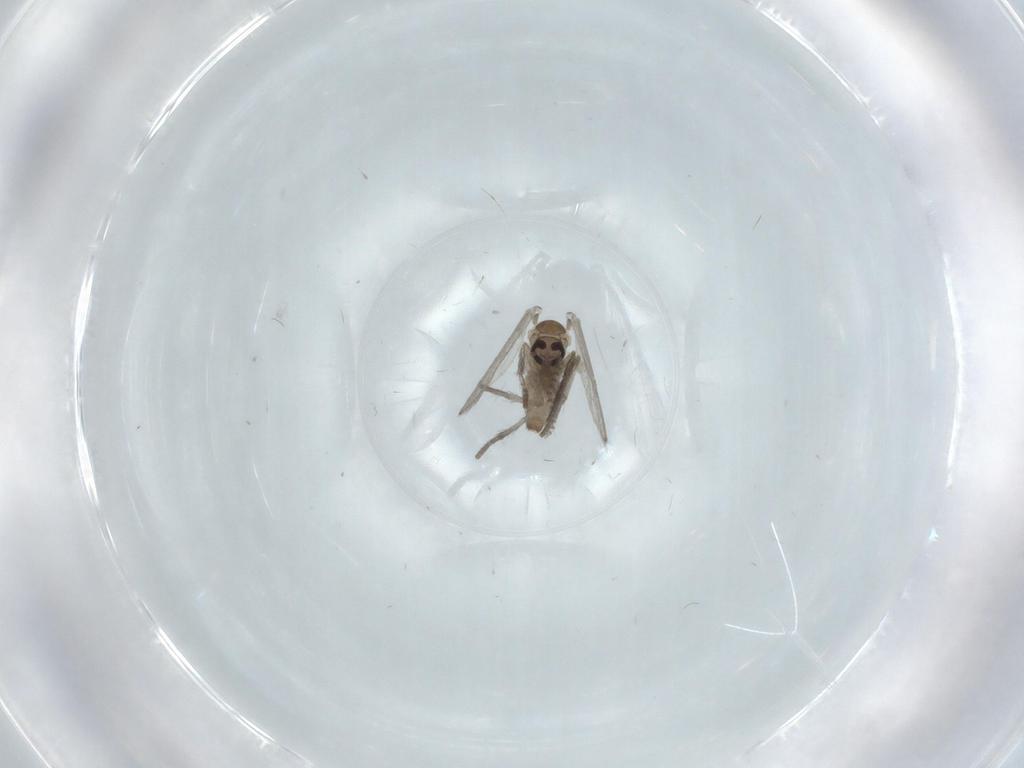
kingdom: Animalia
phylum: Arthropoda
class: Insecta
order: Diptera
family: Psychodidae
